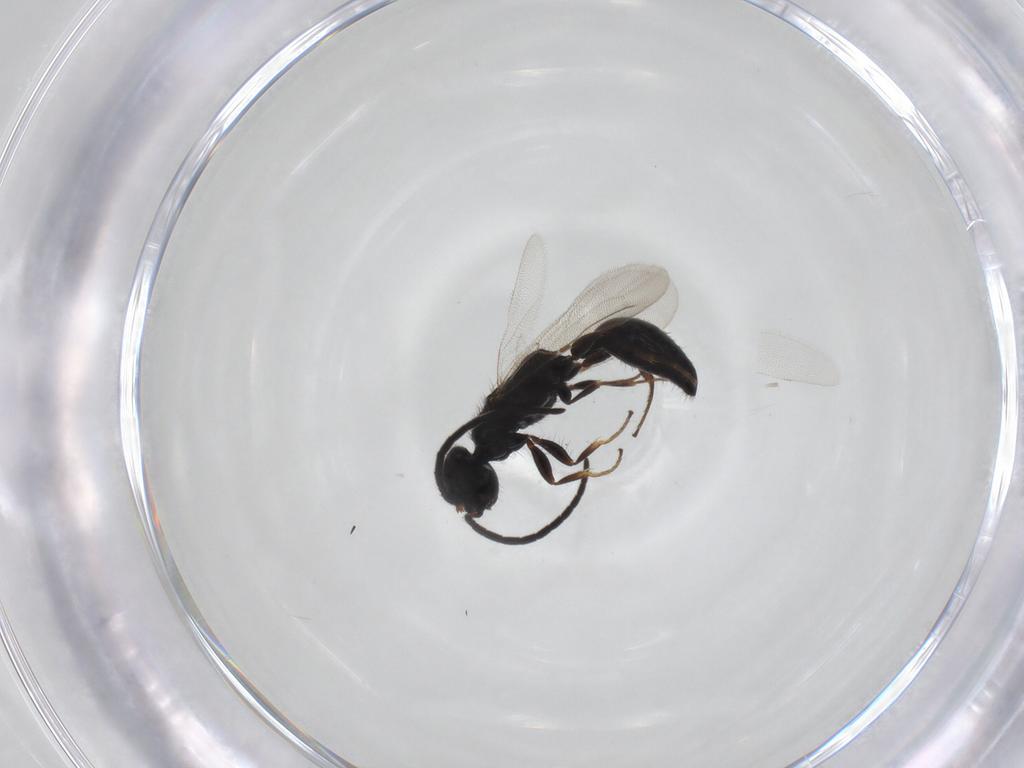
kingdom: Animalia
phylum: Arthropoda
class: Insecta
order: Hymenoptera
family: Bethylidae
